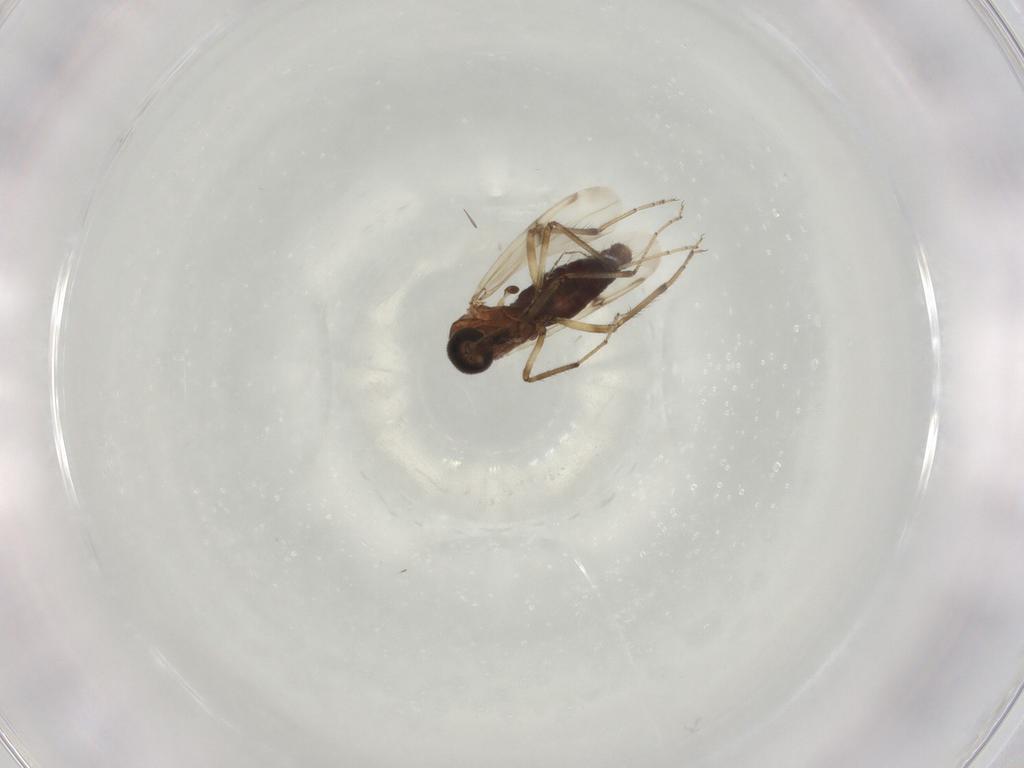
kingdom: Animalia
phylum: Arthropoda
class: Insecta
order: Diptera
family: Ceratopogonidae
